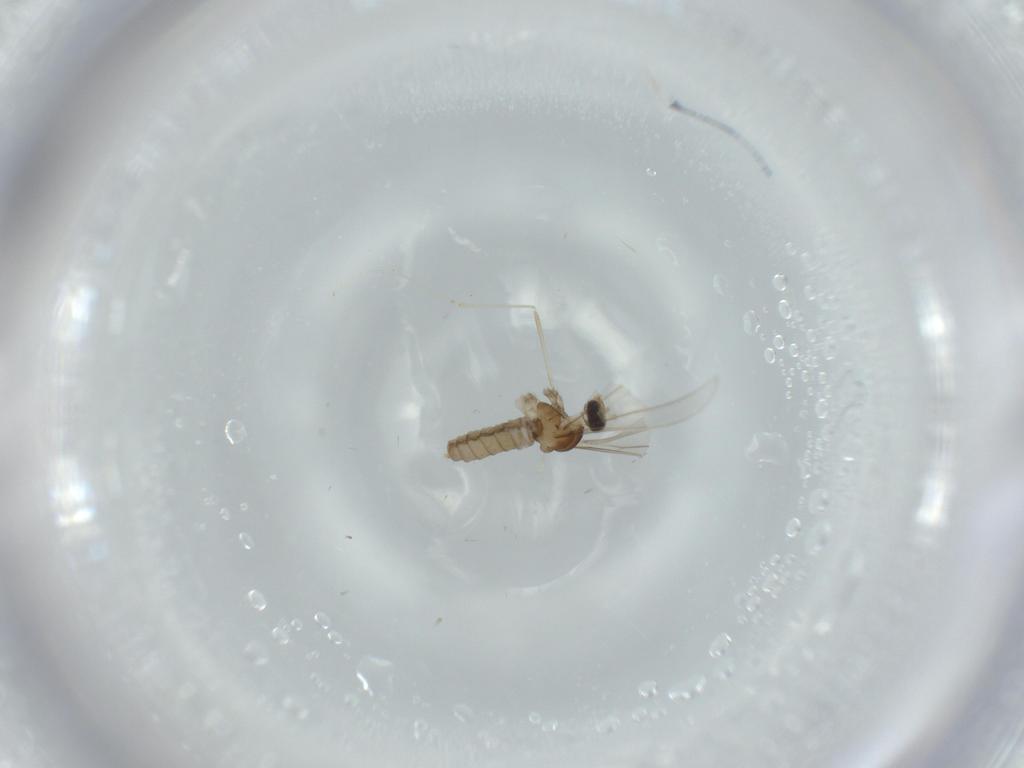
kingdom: Animalia
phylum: Arthropoda
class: Insecta
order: Diptera
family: Cecidomyiidae
